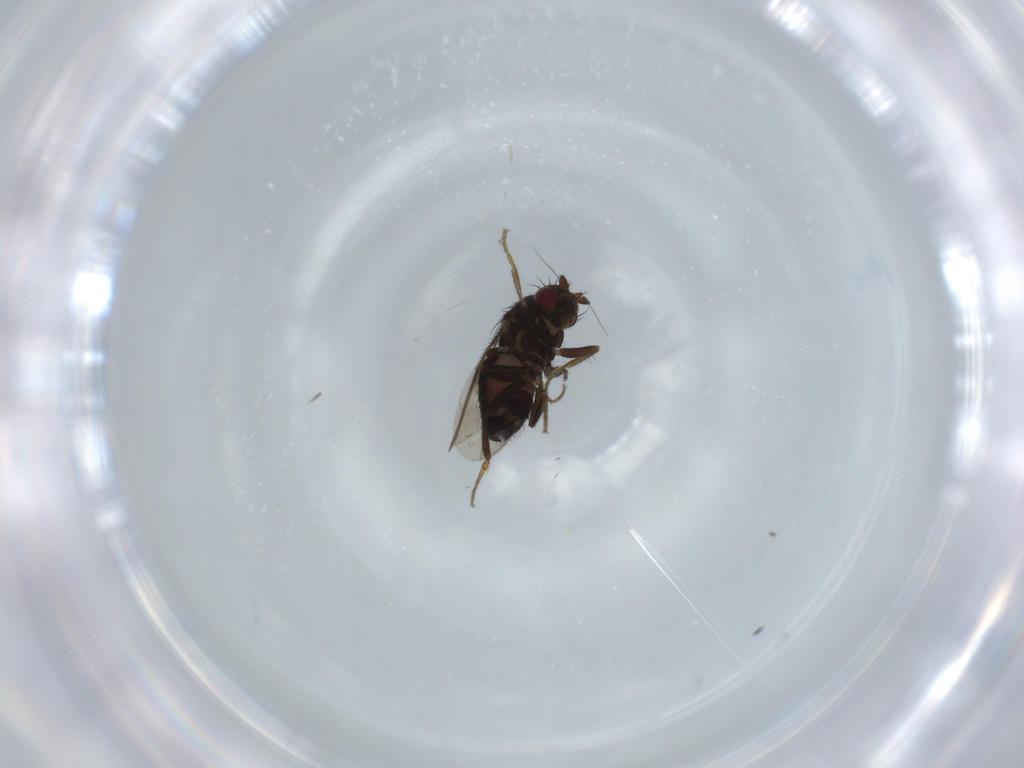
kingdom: Animalia
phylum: Arthropoda
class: Insecta
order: Diptera
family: Sphaeroceridae
